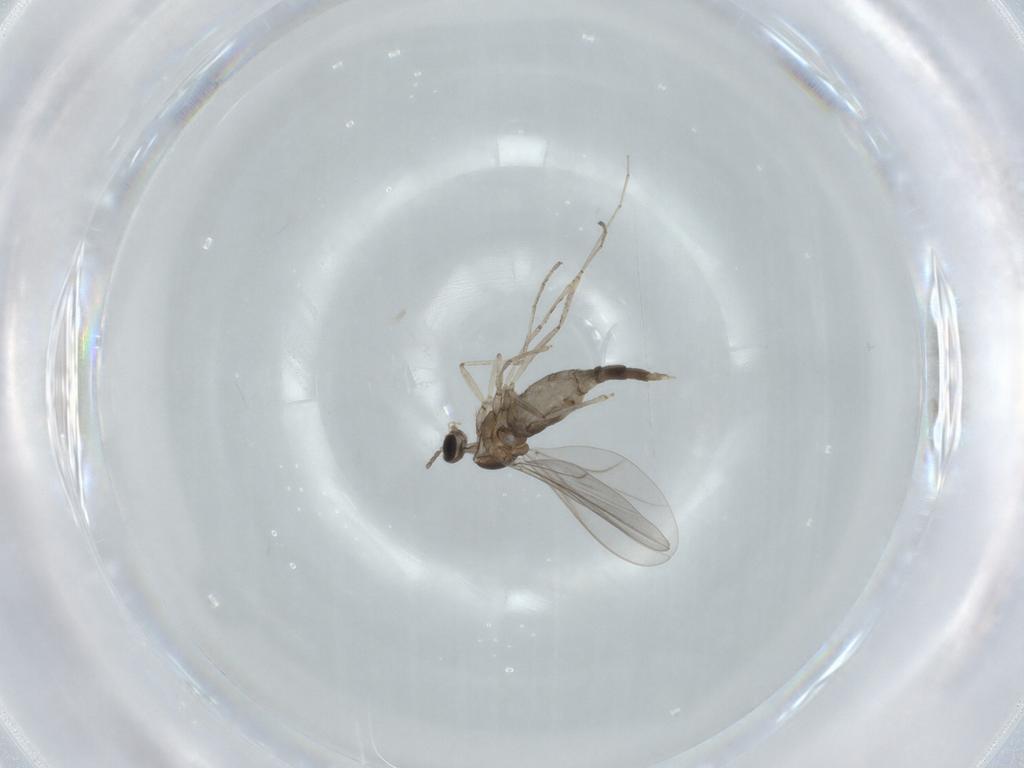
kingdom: Animalia
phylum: Arthropoda
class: Insecta
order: Diptera
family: Cecidomyiidae
